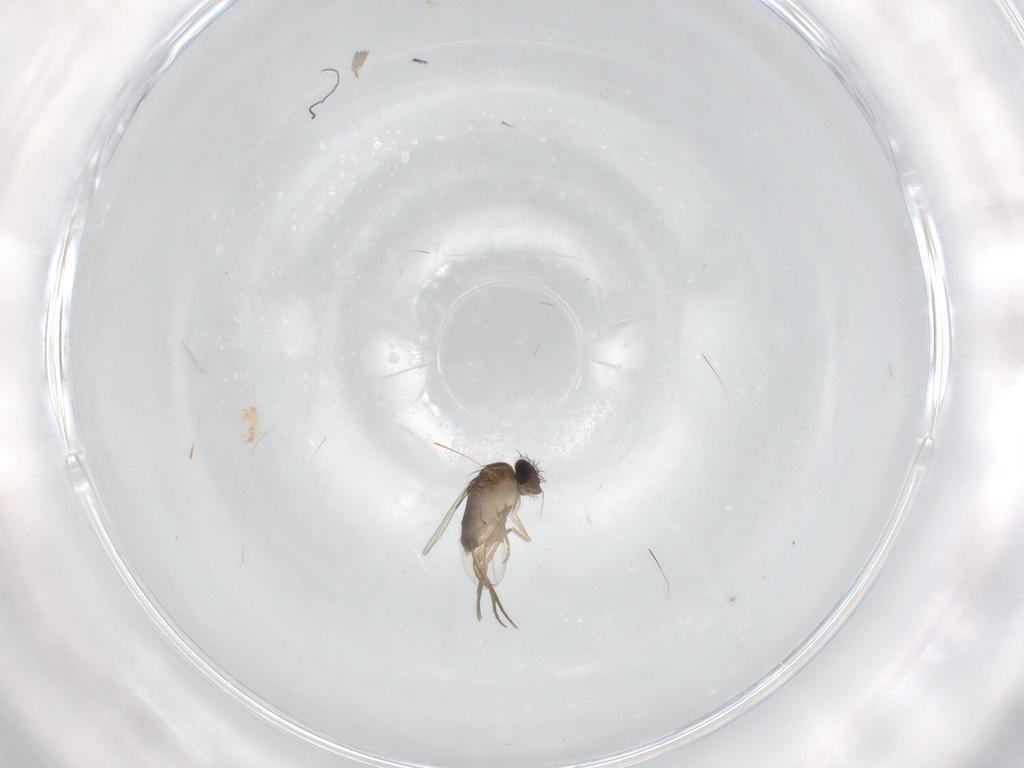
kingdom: Animalia
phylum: Arthropoda
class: Insecta
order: Diptera
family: Phoridae
